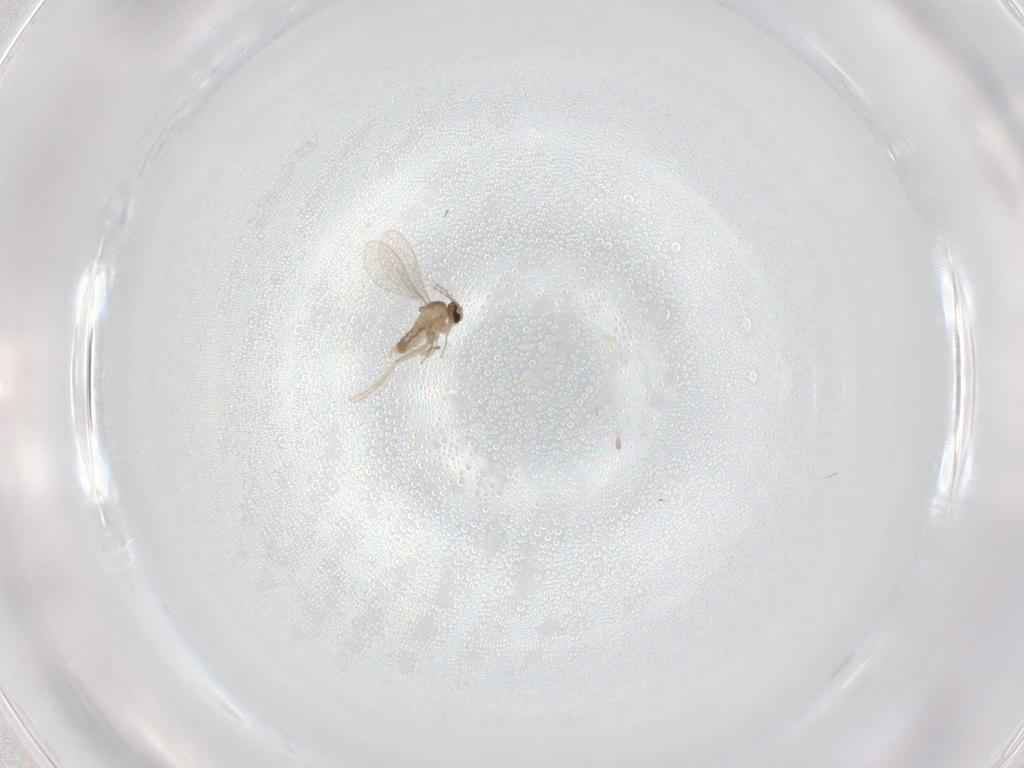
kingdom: Animalia
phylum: Arthropoda
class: Insecta
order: Diptera
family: Cecidomyiidae
